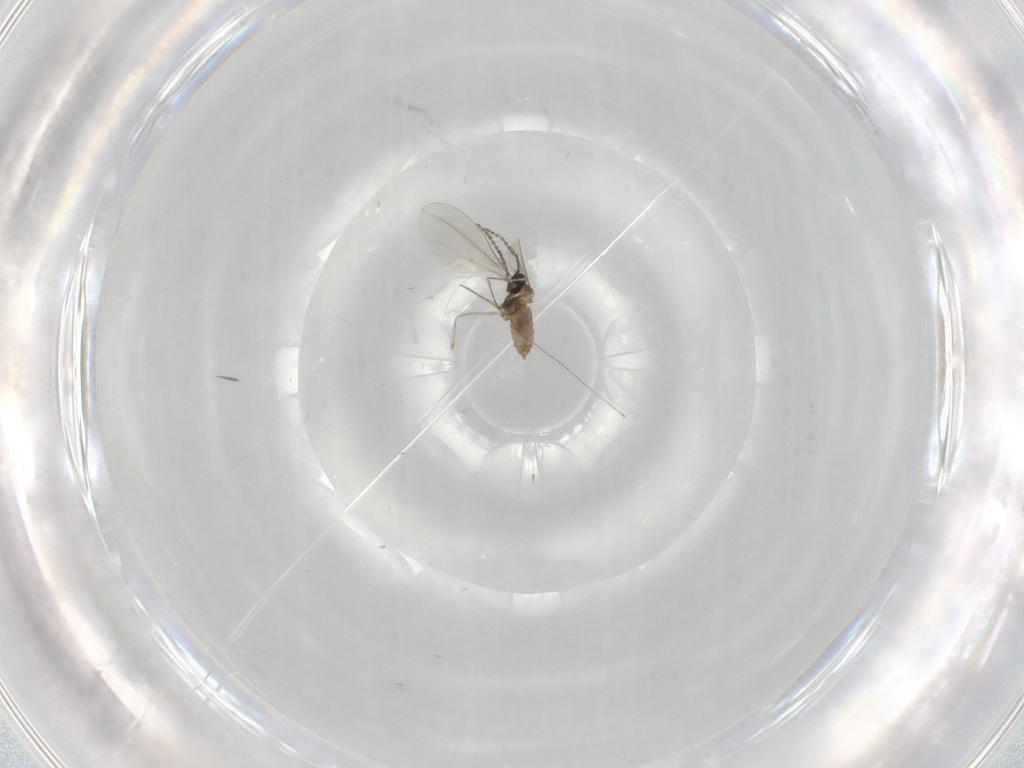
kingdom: Animalia
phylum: Arthropoda
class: Insecta
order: Diptera
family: Cecidomyiidae
